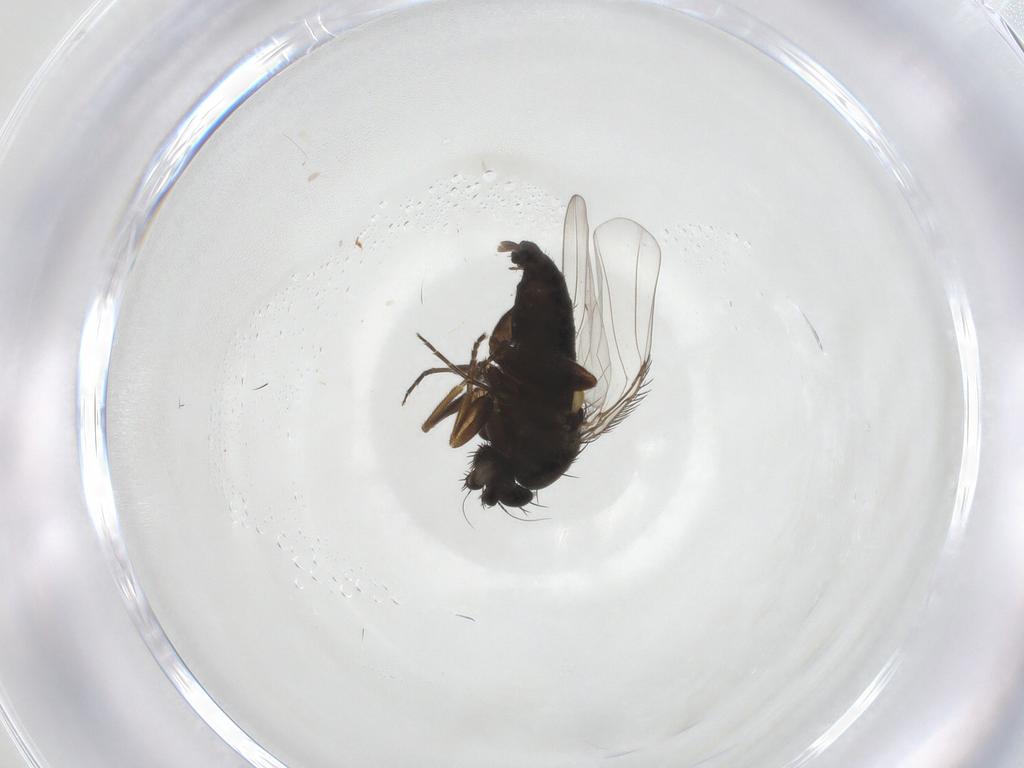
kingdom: Animalia
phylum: Arthropoda
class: Insecta
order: Diptera
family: Phoridae
